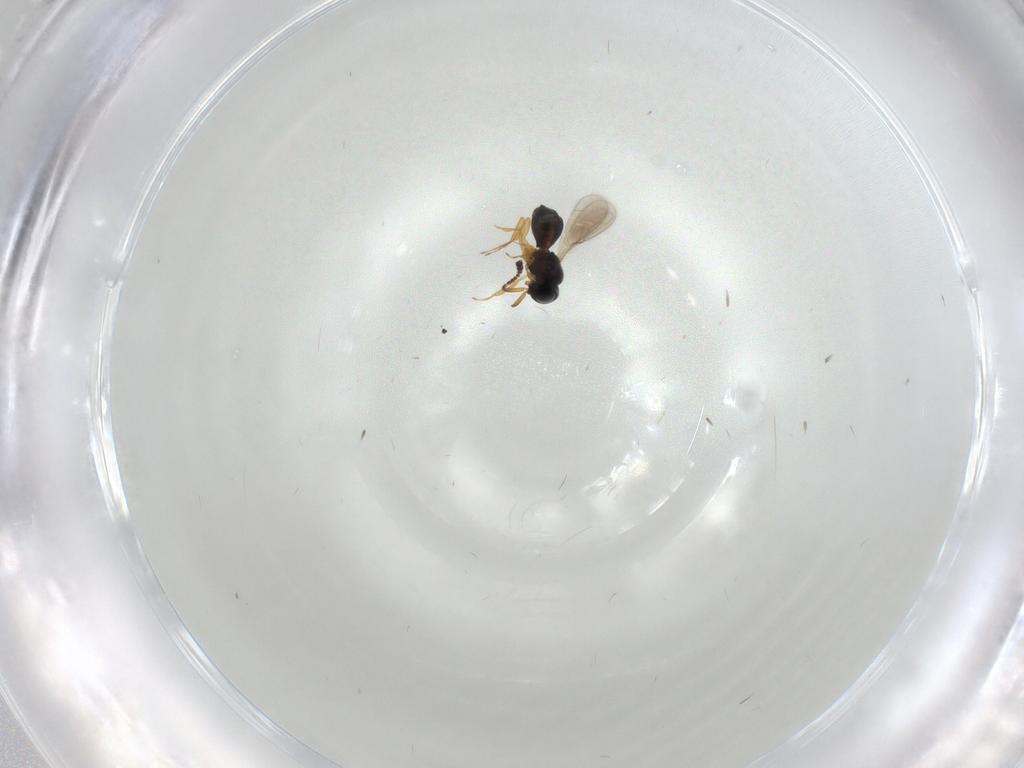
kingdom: Animalia
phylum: Arthropoda
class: Insecta
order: Hymenoptera
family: Scelionidae
